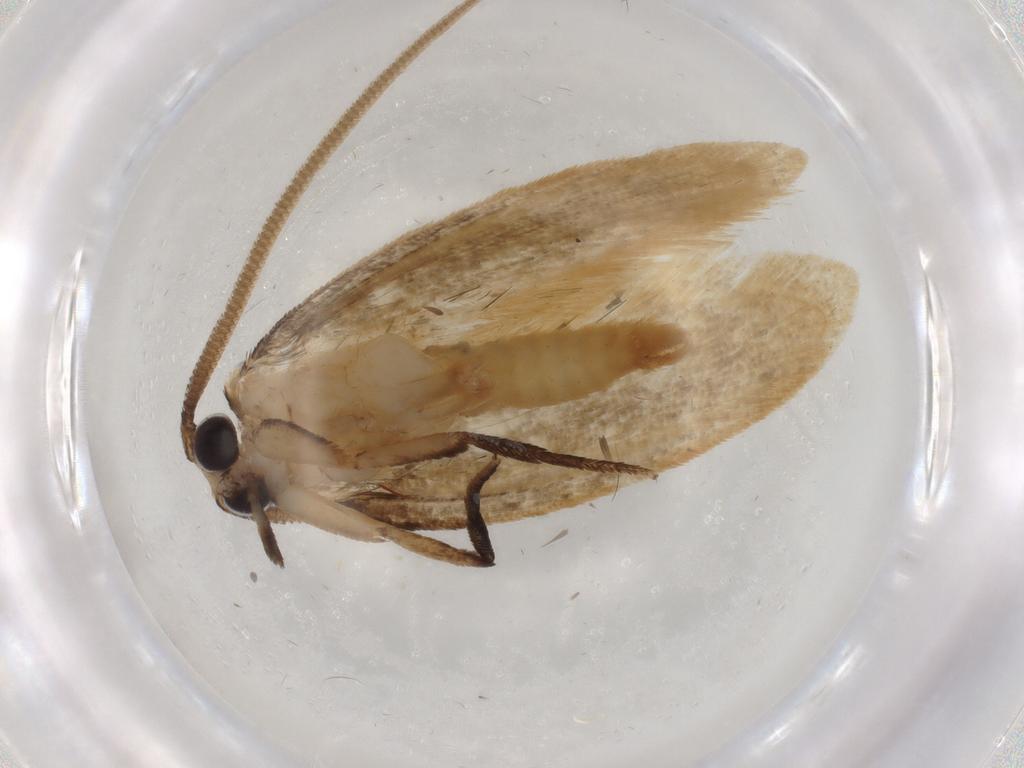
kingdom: Animalia
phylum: Arthropoda
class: Insecta
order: Lepidoptera
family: Tineidae
